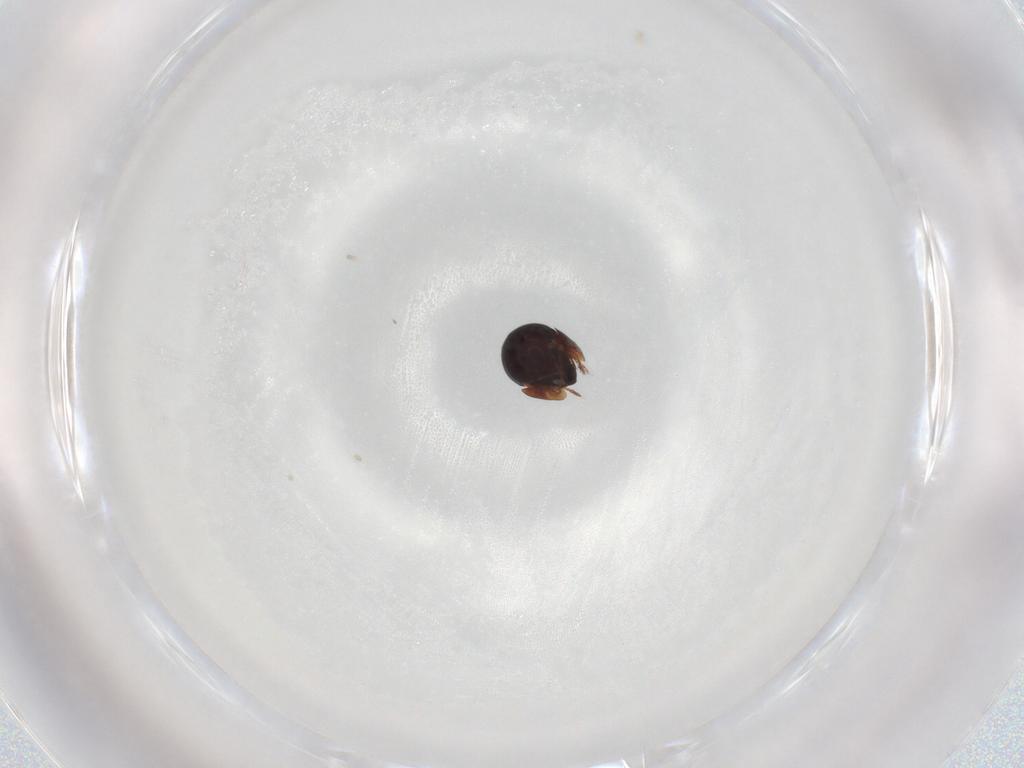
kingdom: Animalia
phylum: Arthropoda
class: Arachnida
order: Sarcoptiformes
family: Ceratozetidae
